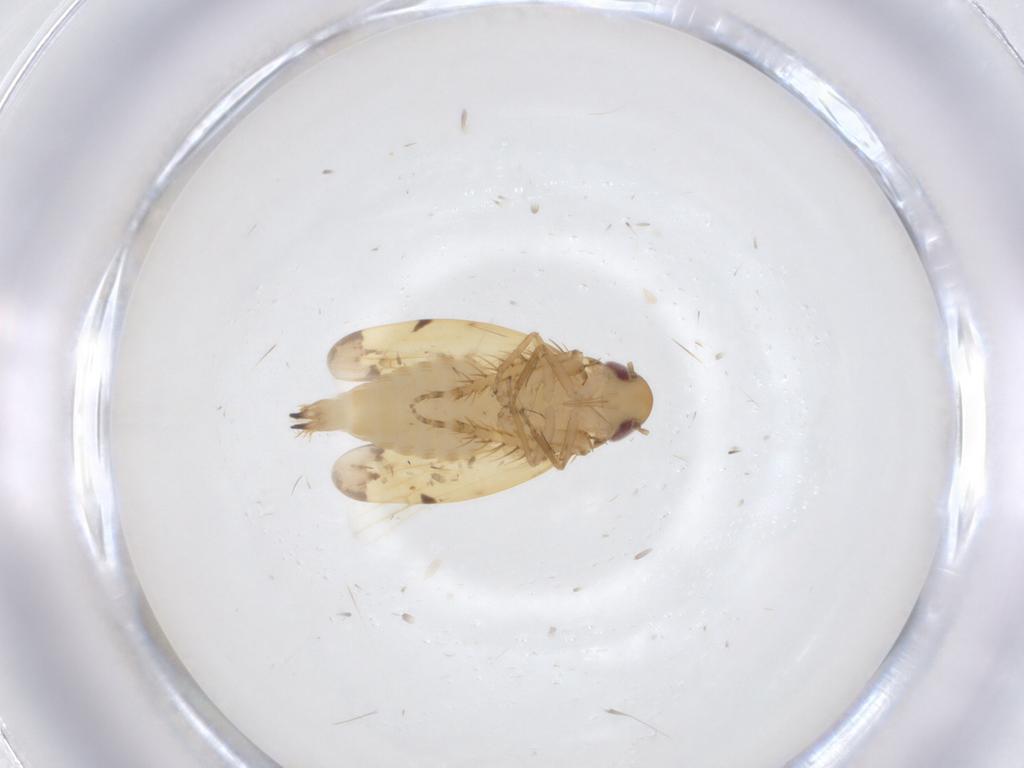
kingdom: Animalia
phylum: Arthropoda
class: Insecta
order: Hemiptera
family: Cicadellidae
